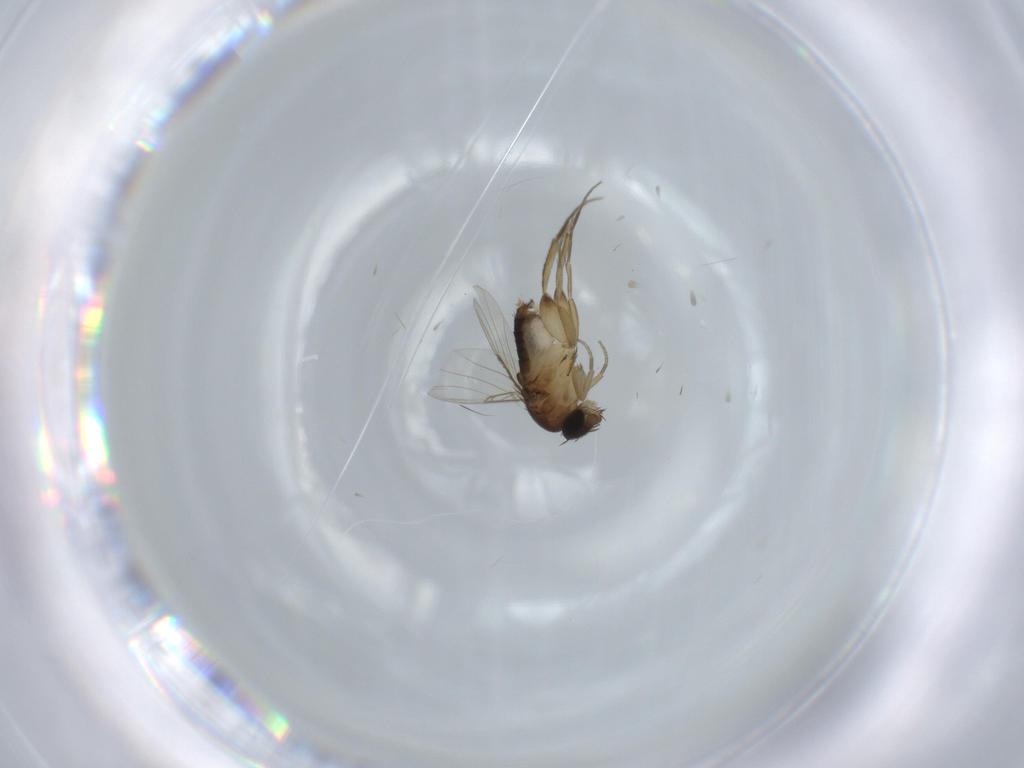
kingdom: Animalia
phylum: Arthropoda
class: Insecta
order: Diptera
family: Phoridae
